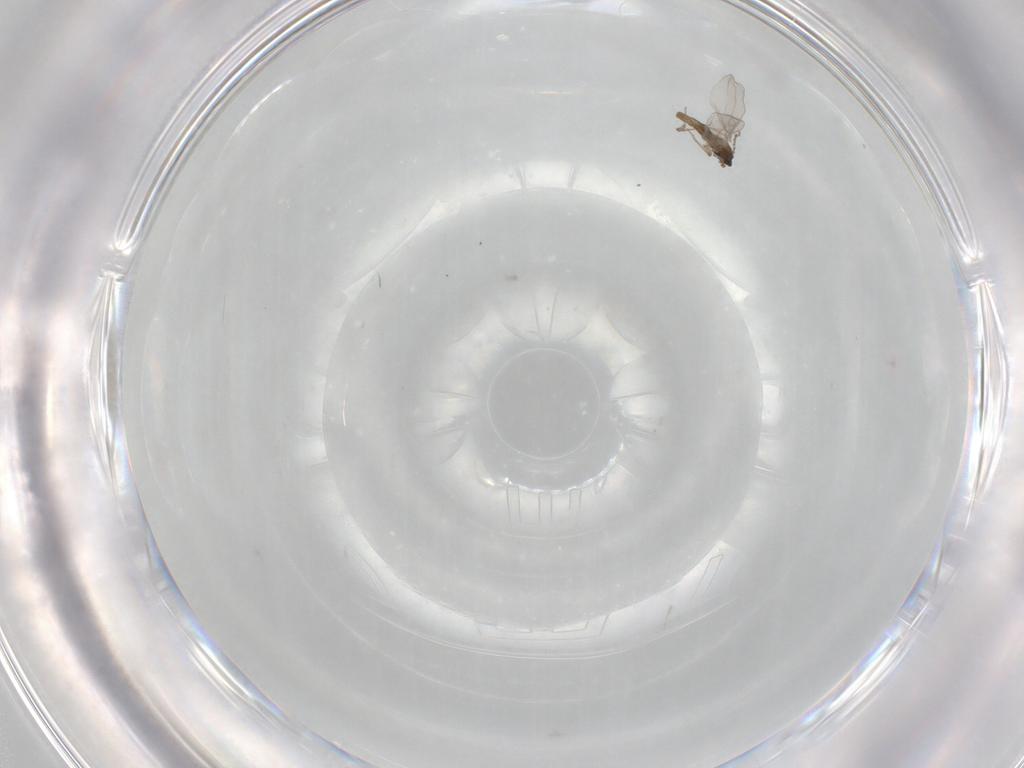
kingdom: Animalia
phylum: Arthropoda
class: Insecta
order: Diptera
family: Cecidomyiidae
